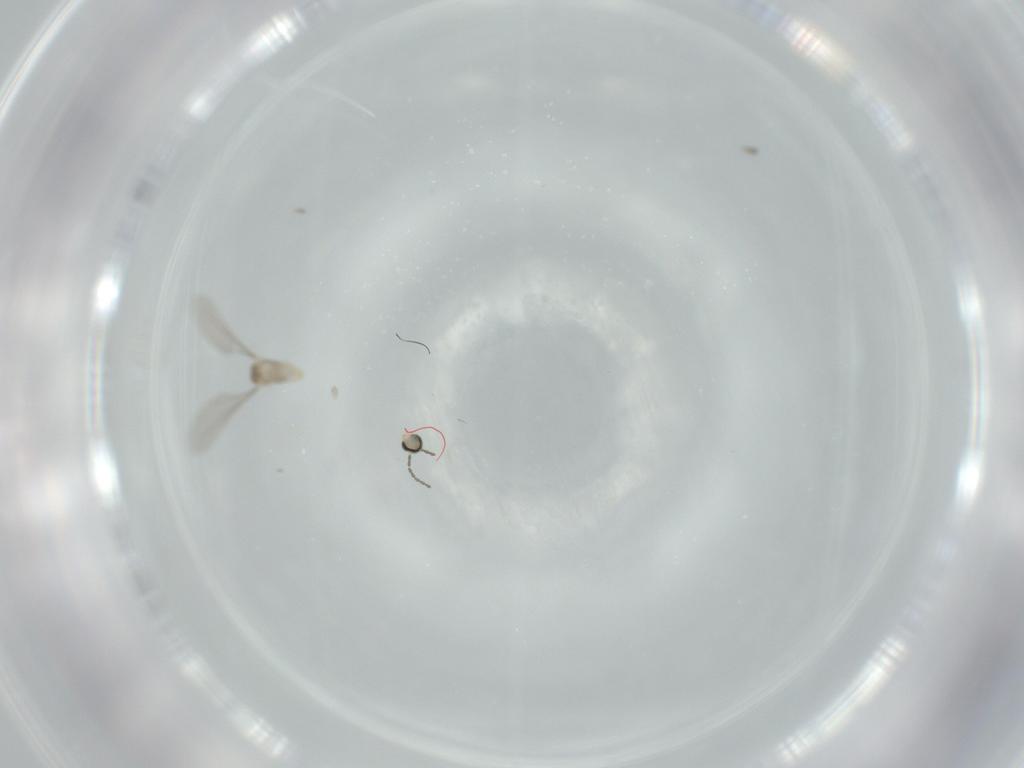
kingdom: Animalia
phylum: Arthropoda
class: Insecta
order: Diptera
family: Cecidomyiidae
